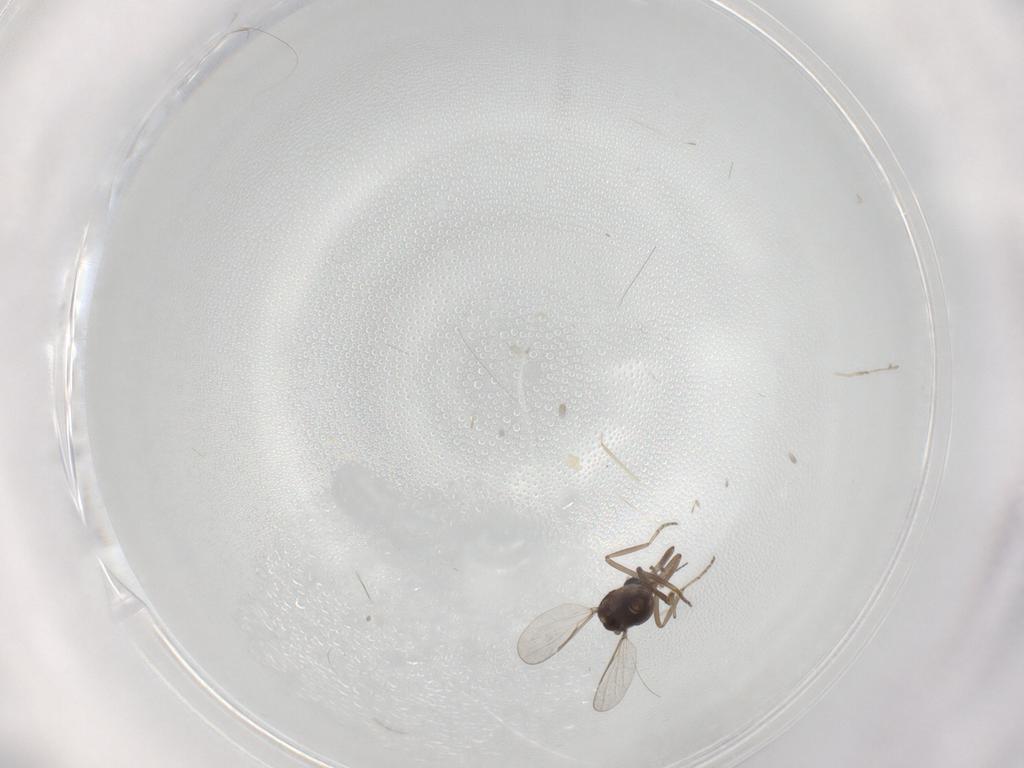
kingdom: Animalia
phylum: Arthropoda
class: Insecta
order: Diptera
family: Ceratopogonidae
